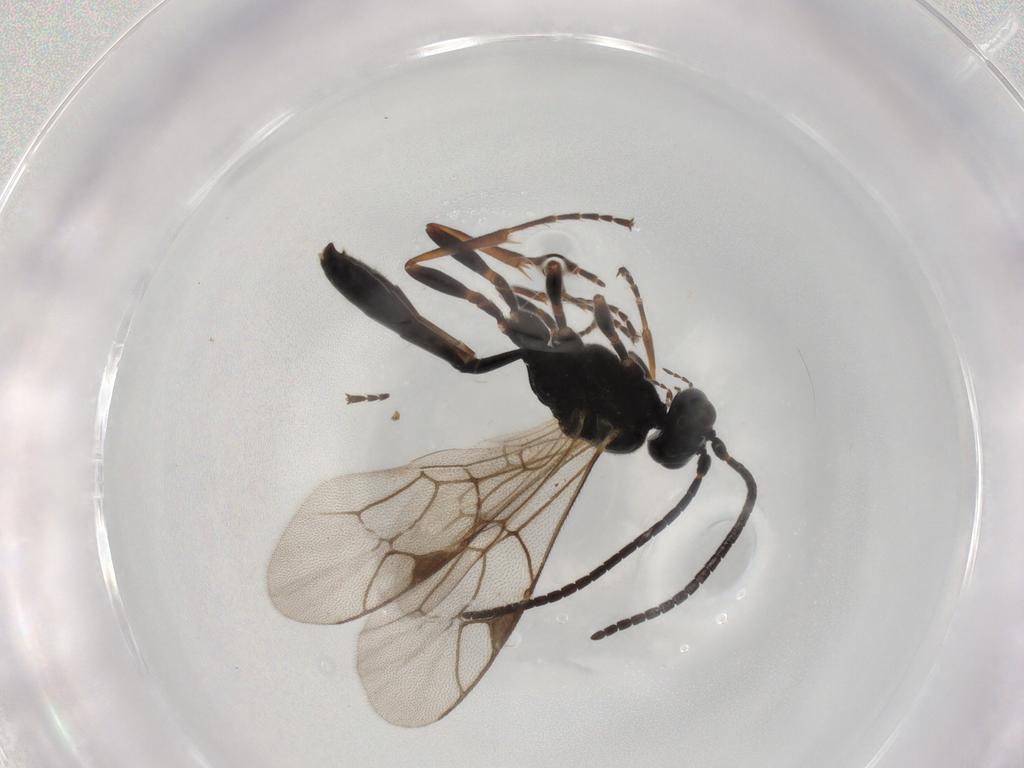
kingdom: Animalia
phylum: Arthropoda
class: Insecta
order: Hymenoptera
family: Ichneumonidae
